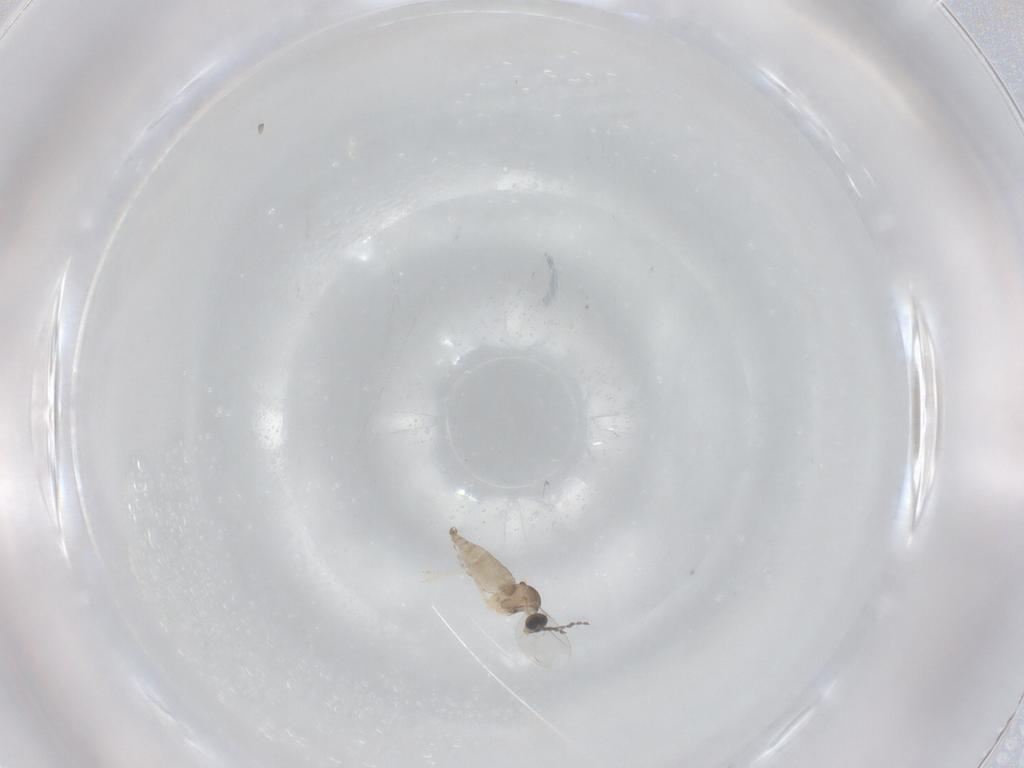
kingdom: Animalia
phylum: Arthropoda
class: Insecta
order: Diptera
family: Cecidomyiidae
